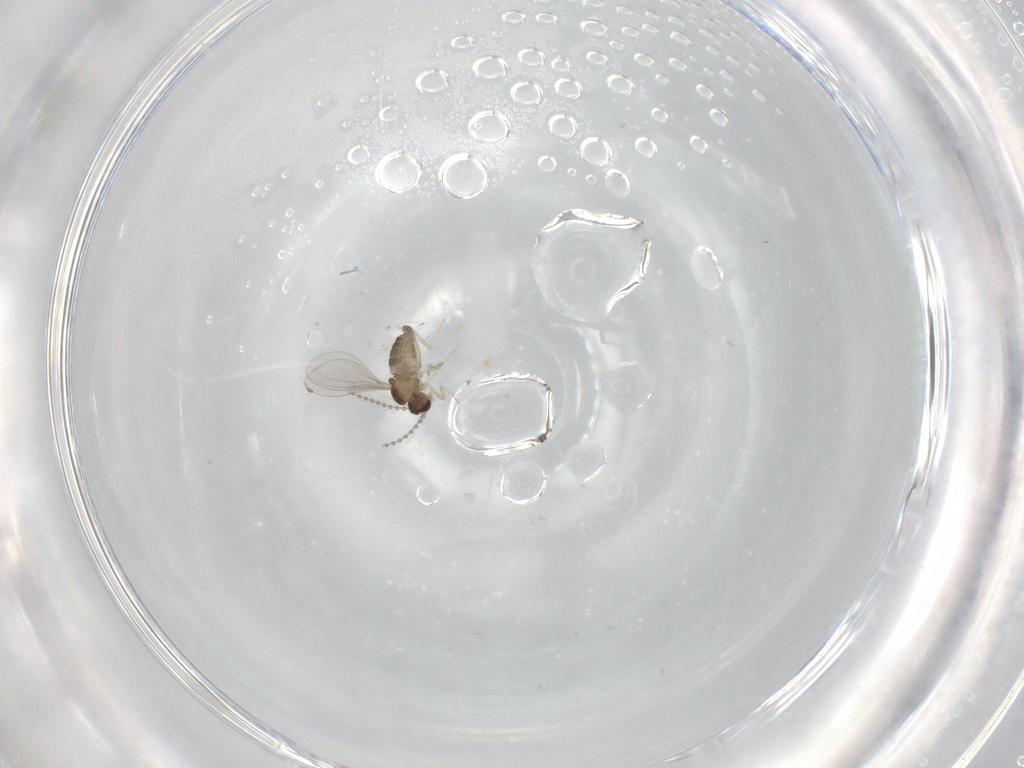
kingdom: Animalia
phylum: Arthropoda
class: Insecta
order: Diptera
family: Cecidomyiidae
